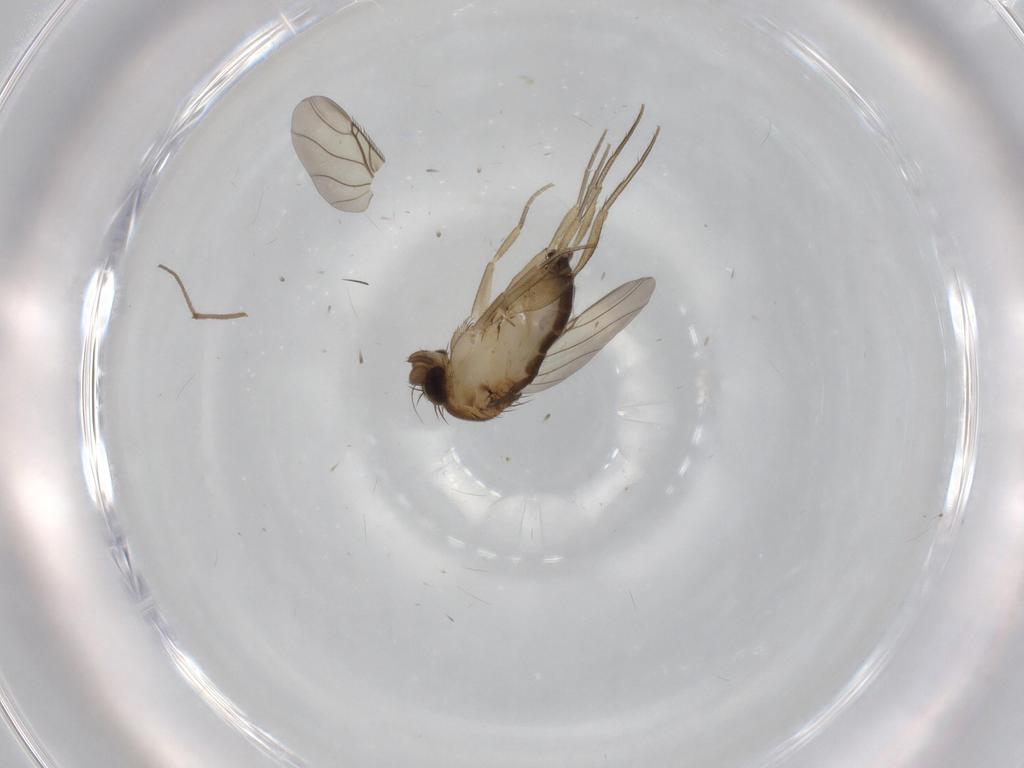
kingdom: Animalia
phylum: Arthropoda
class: Insecta
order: Diptera
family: Phoridae
